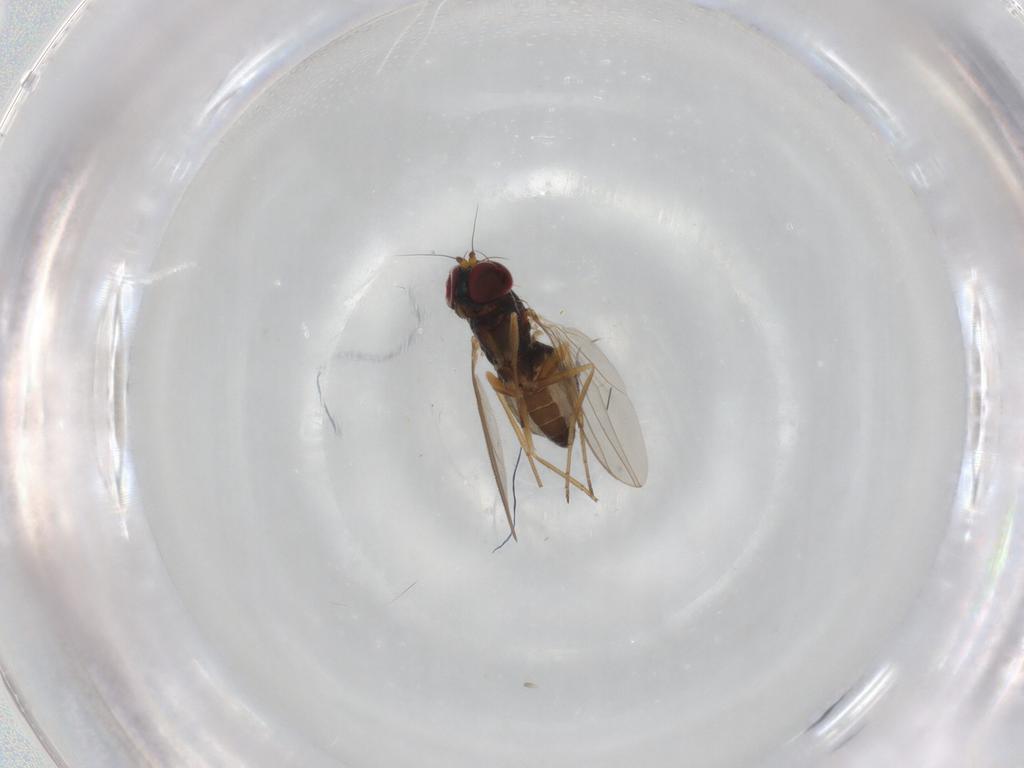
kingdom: Animalia
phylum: Arthropoda
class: Insecta
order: Diptera
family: Dolichopodidae
